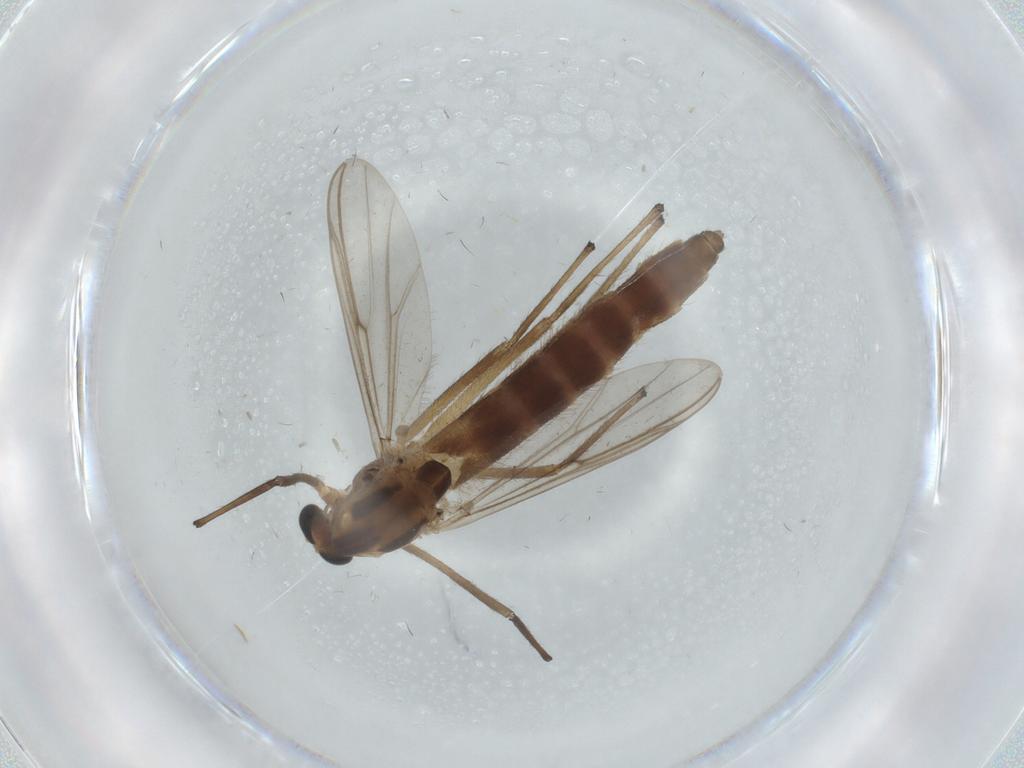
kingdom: Animalia
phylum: Arthropoda
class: Insecta
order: Diptera
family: Chironomidae
